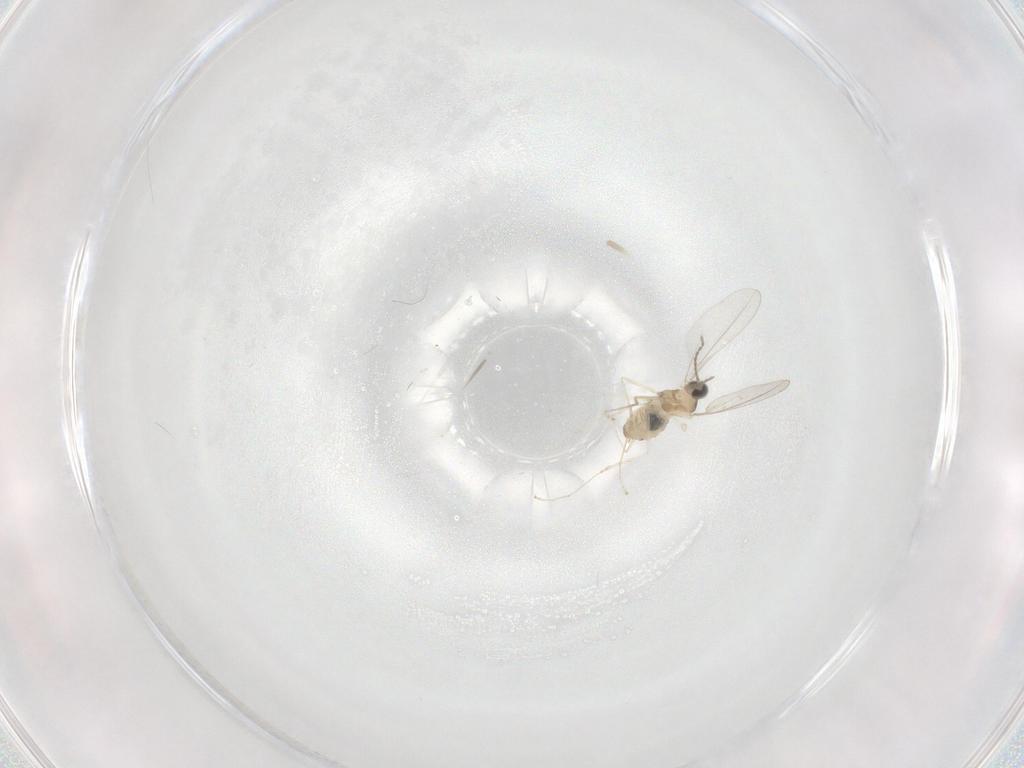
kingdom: Animalia
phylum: Arthropoda
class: Insecta
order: Diptera
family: Cecidomyiidae
